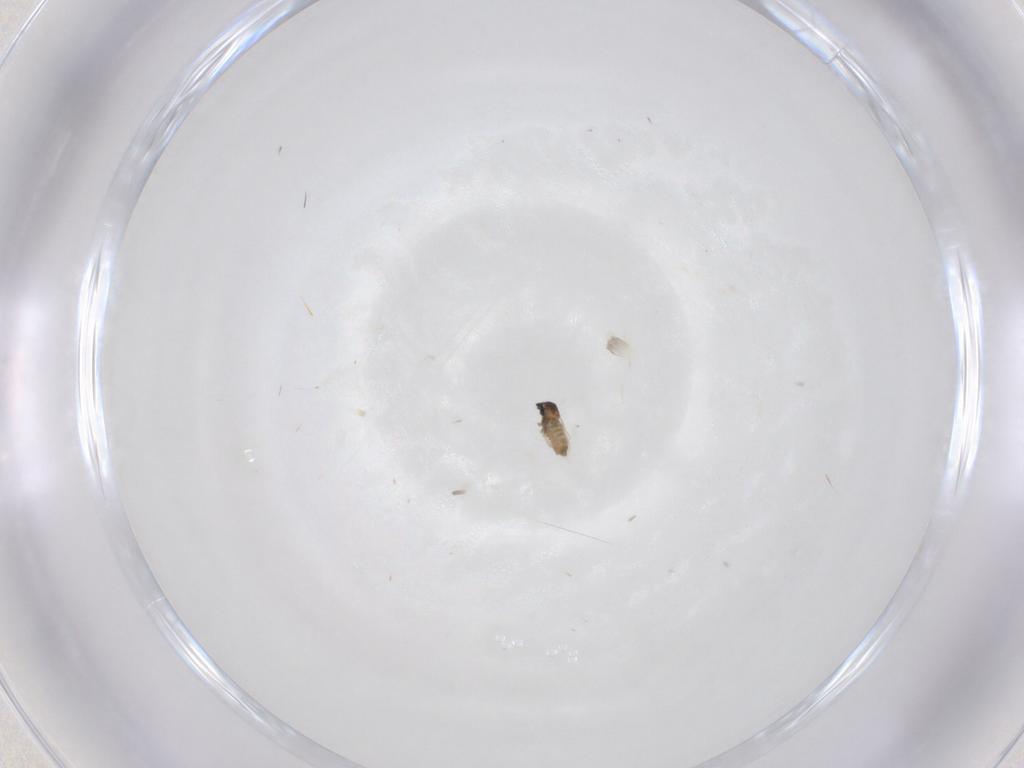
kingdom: Animalia
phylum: Arthropoda
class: Insecta
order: Diptera
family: Cecidomyiidae
